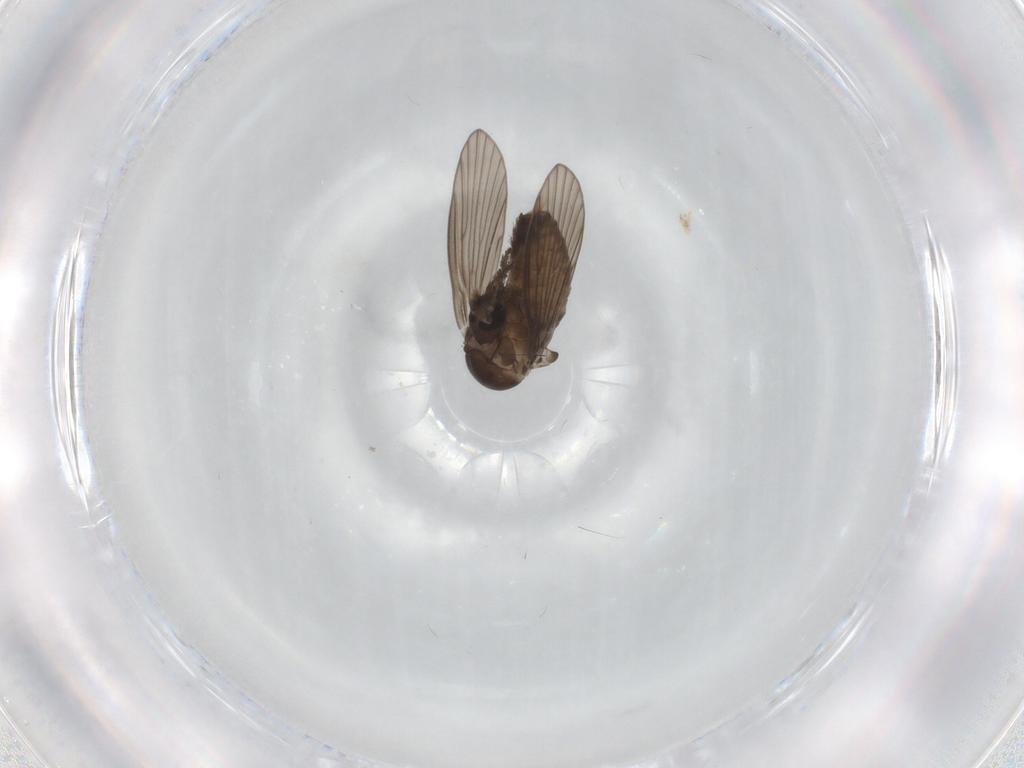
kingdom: Animalia
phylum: Arthropoda
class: Insecta
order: Diptera
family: Psychodidae
